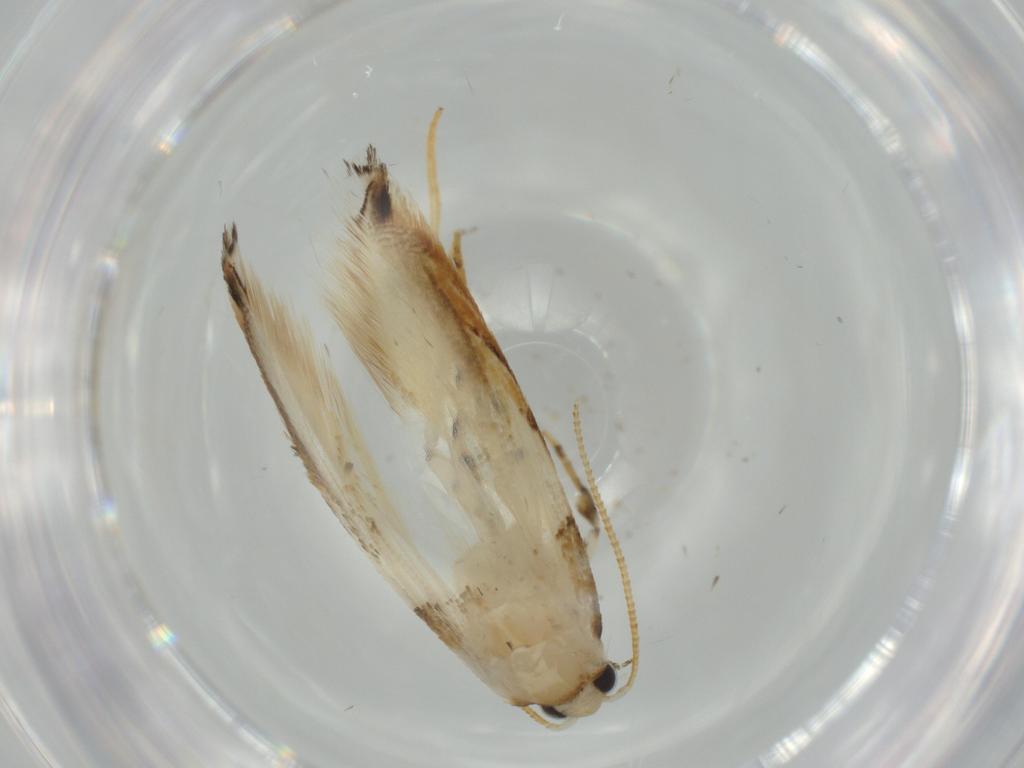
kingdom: Animalia
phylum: Arthropoda
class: Insecta
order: Lepidoptera
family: Tineidae
